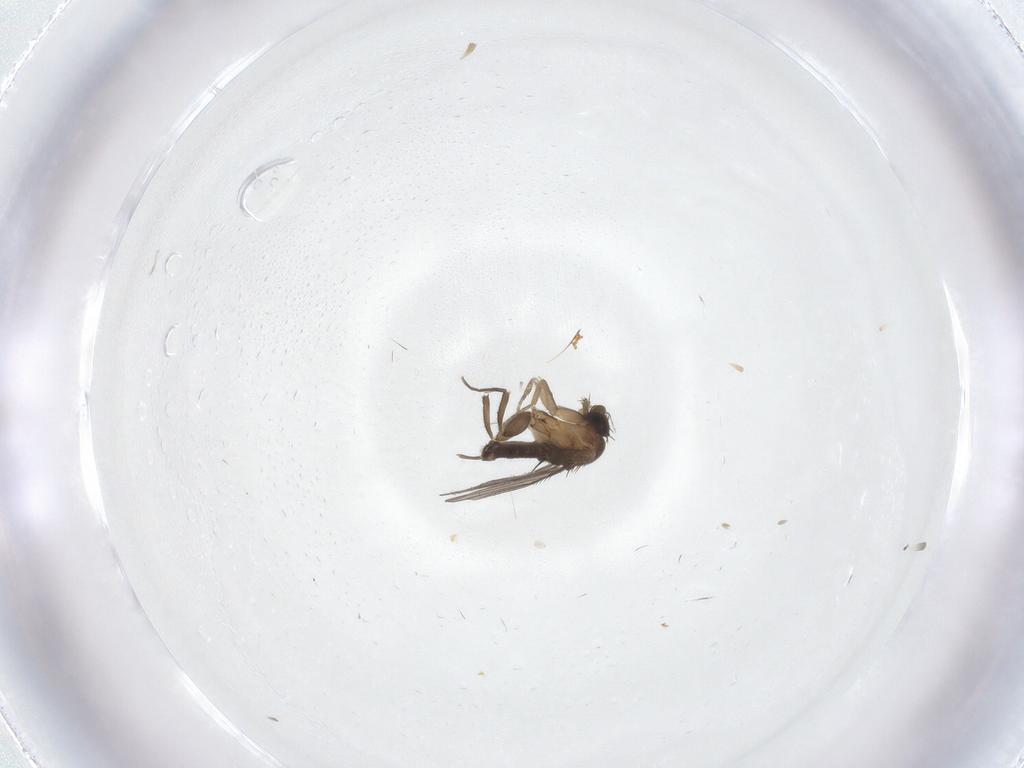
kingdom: Animalia
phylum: Arthropoda
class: Insecta
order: Diptera
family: Phoridae
